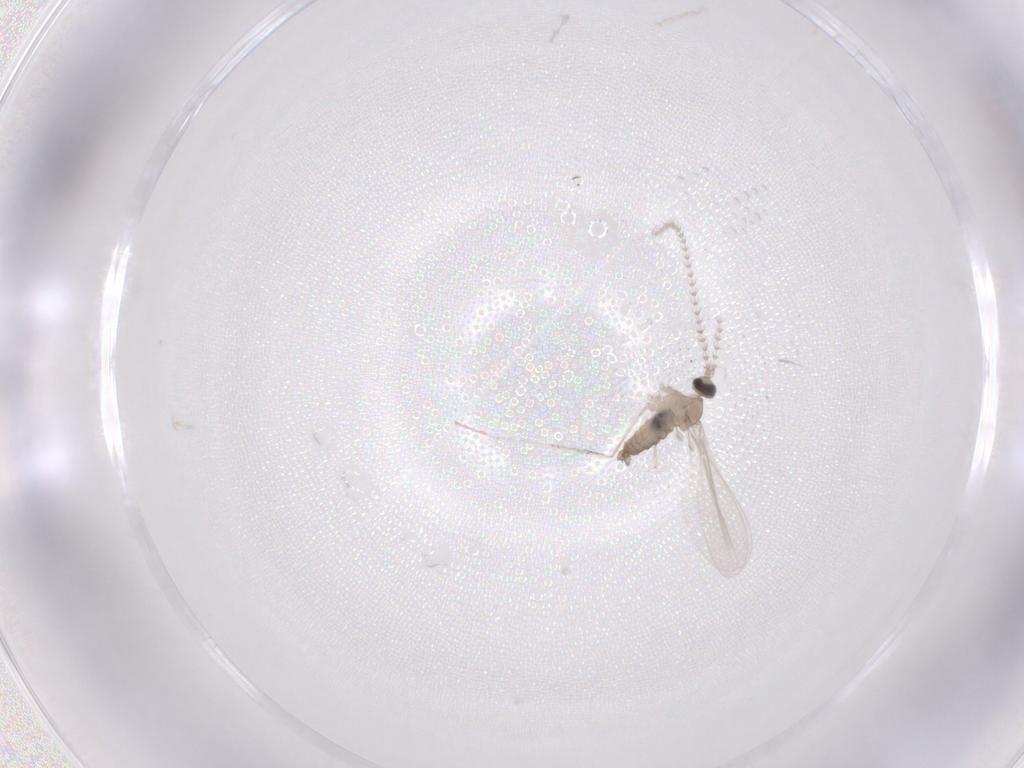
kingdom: Animalia
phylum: Arthropoda
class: Insecta
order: Diptera
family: Cecidomyiidae
